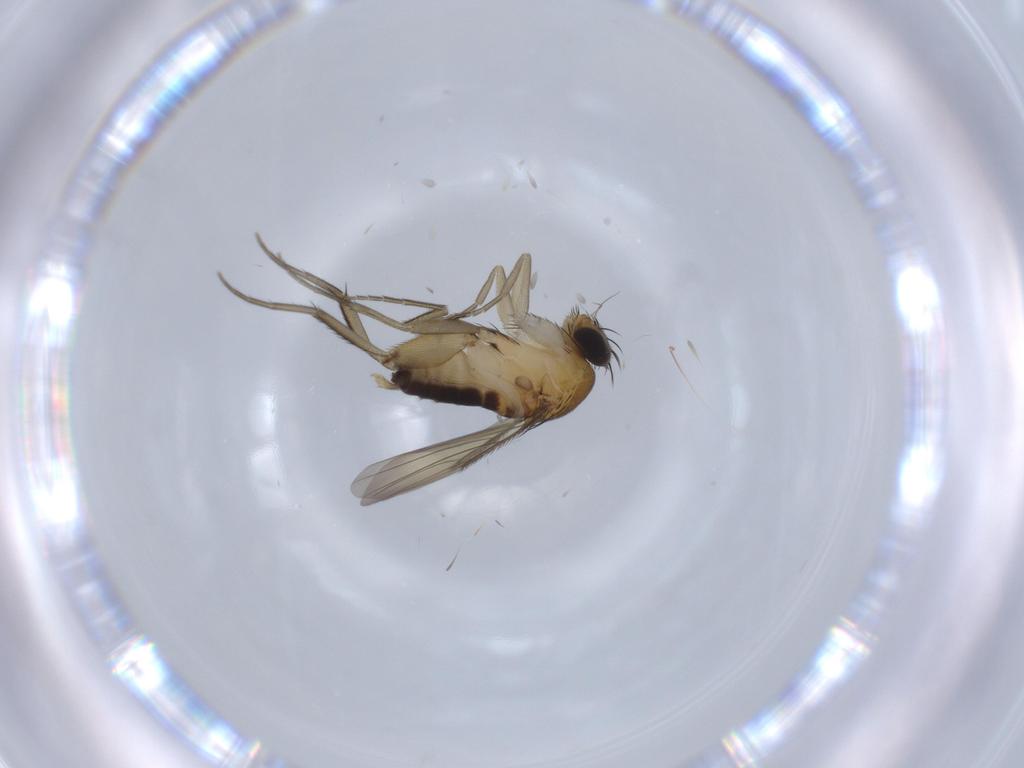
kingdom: Animalia
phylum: Arthropoda
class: Insecta
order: Diptera
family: Phoridae
